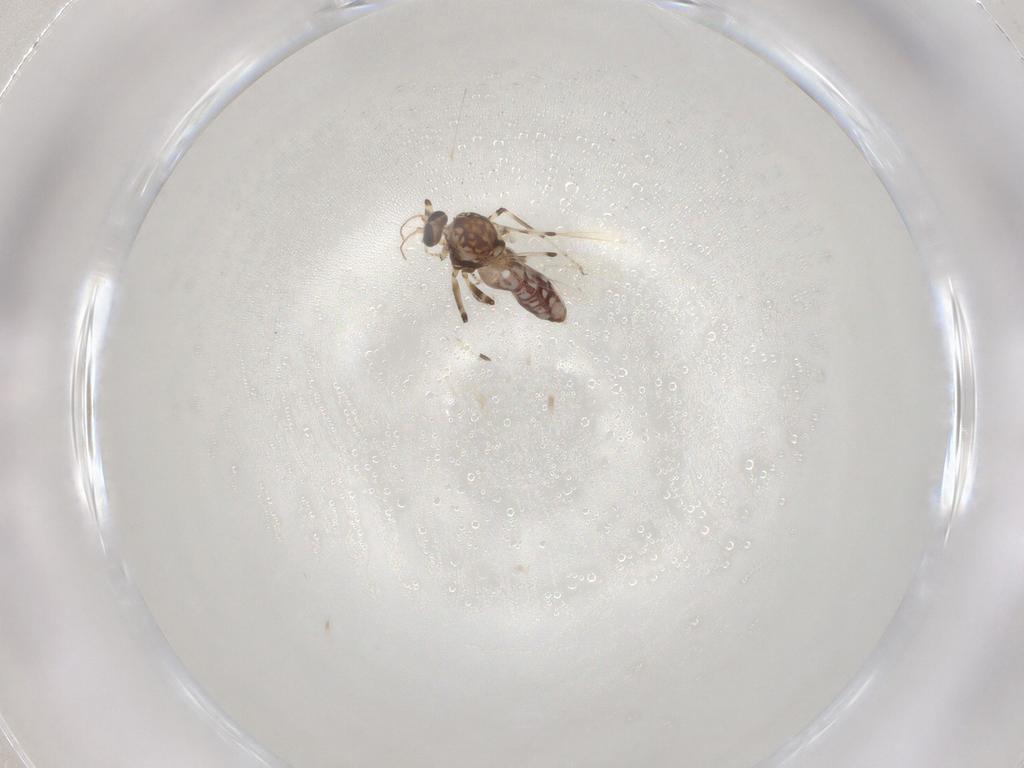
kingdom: Animalia
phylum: Arthropoda
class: Insecta
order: Diptera
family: Ceratopogonidae
